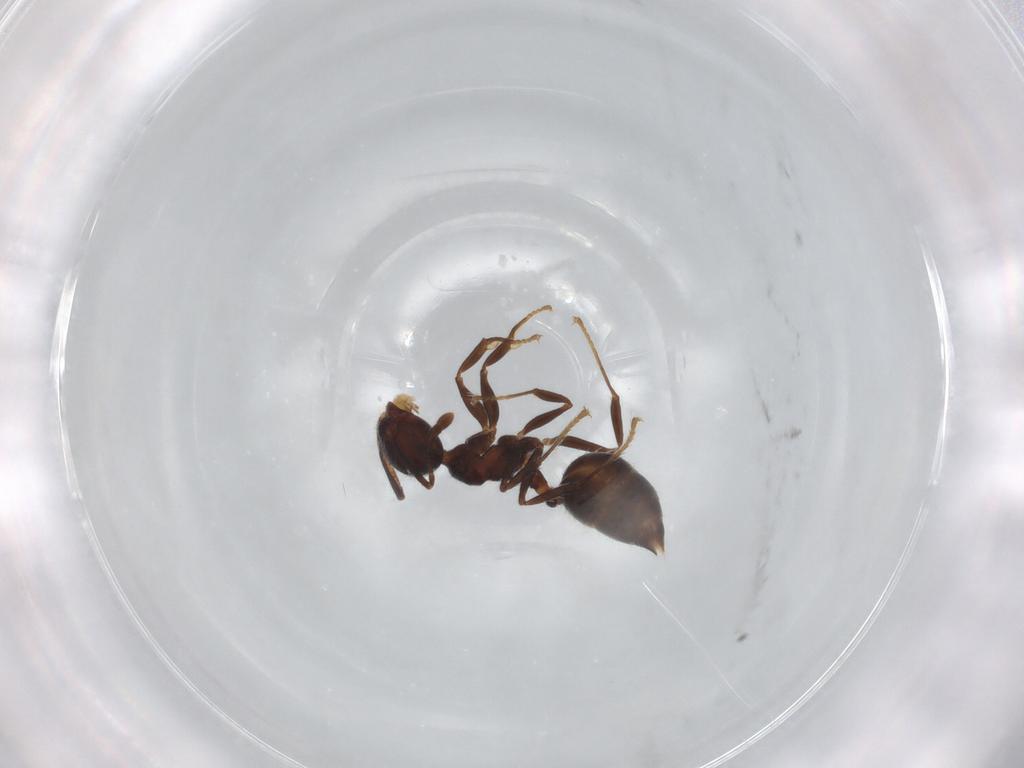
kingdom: Animalia
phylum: Arthropoda
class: Insecta
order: Hymenoptera
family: Formicidae
